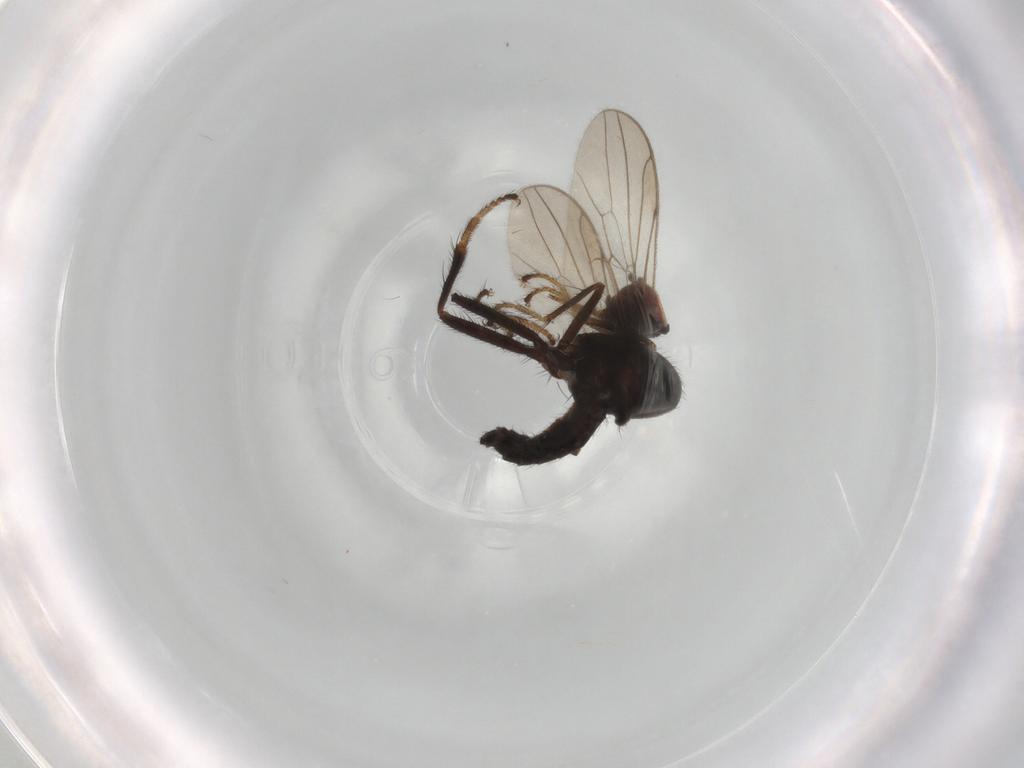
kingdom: Animalia
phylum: Arthropoda
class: Insecta
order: Diptera
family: Hybotidae
